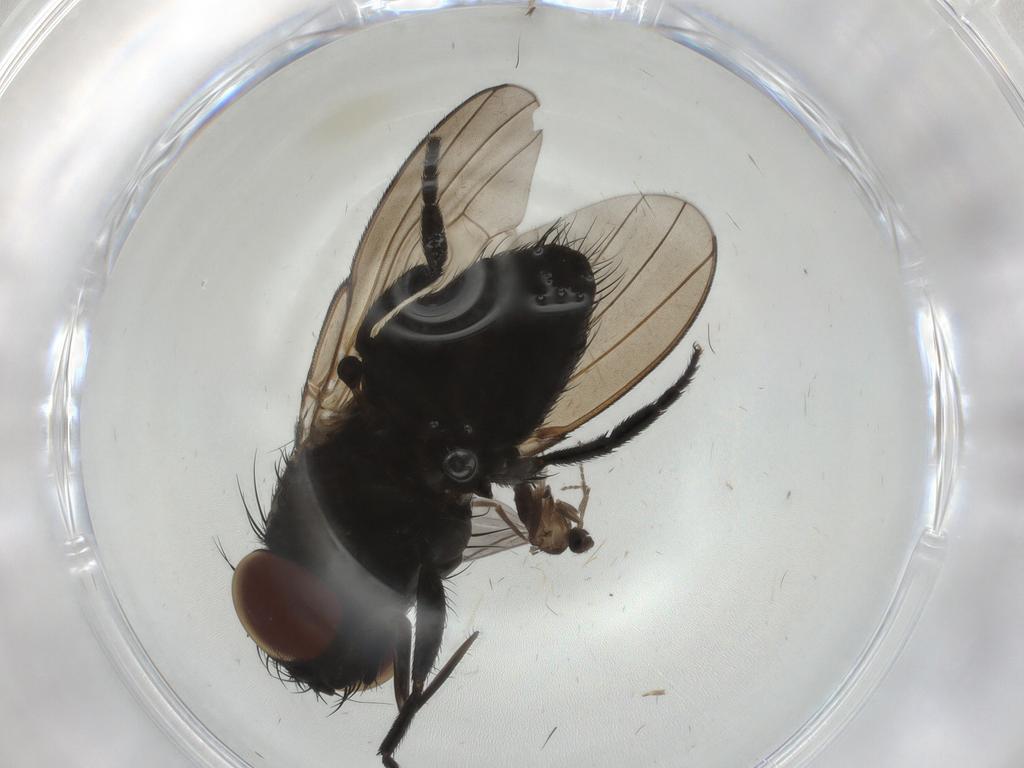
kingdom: Animalia
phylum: Arthropoda
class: Insecta
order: Diptera
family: Milichiidae
